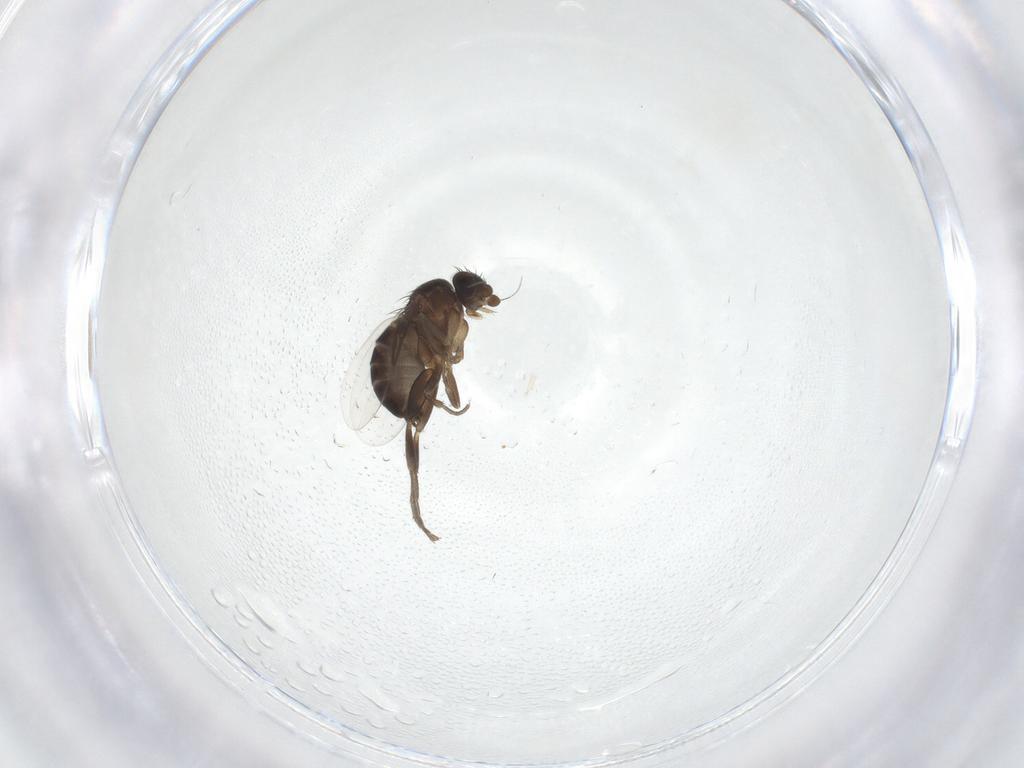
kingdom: Animalia
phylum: Arthropoda
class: Insecta
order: Diptera
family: Phoridae
